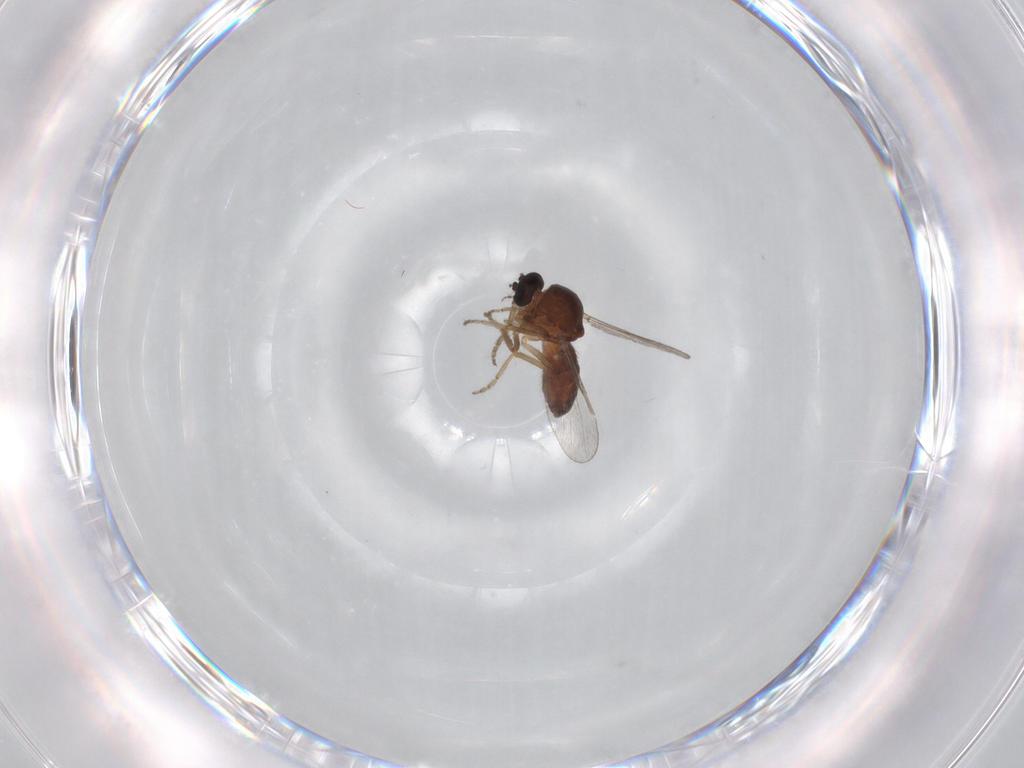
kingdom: Animalia
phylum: Arthropoda
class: Insecta
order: Diptera
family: Ceratopogonidae
